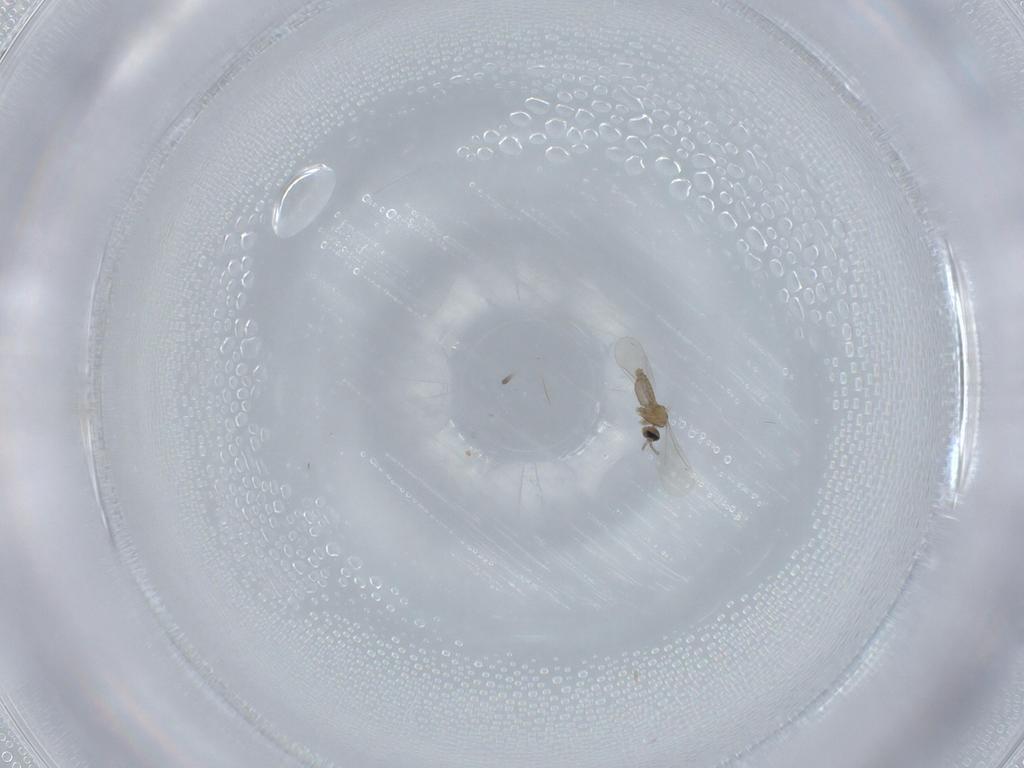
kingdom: Animalia
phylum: Arthropoda
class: Insecta
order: Diptera
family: Cecidomyiidae
